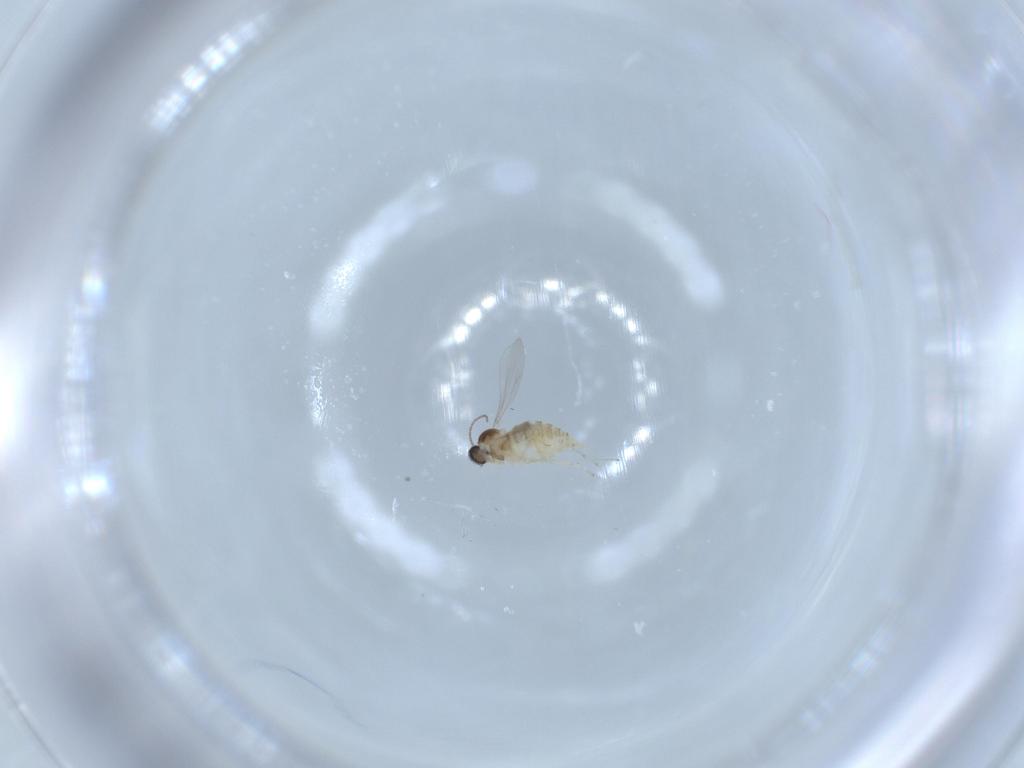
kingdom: Animalia
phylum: Arthropoda
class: Insecta
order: Diptera
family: Cecidomyiidae
